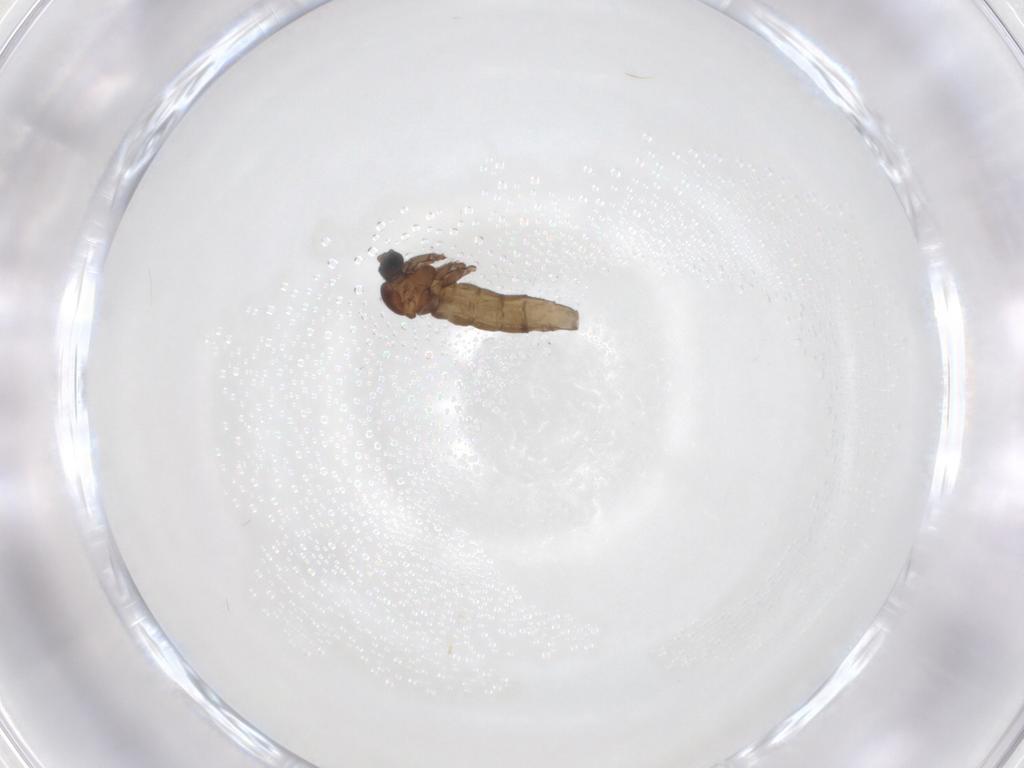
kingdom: Animalia
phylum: Arthropoda
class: Insecta
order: Diptera
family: Sciaridae
